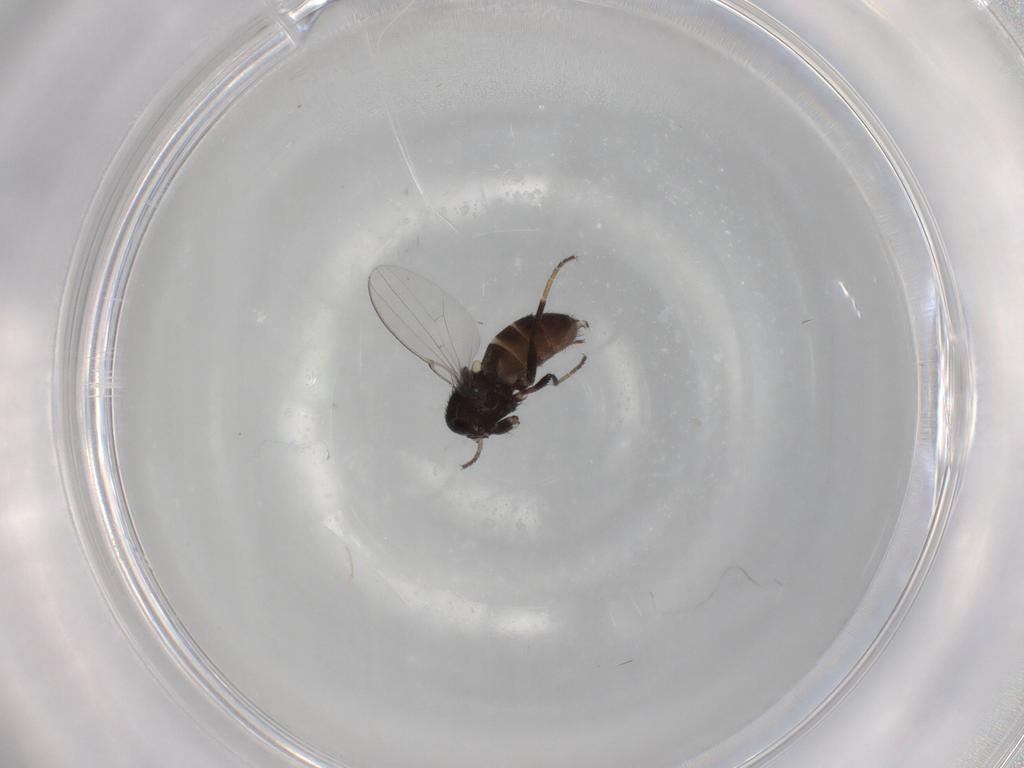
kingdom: Animalia
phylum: Arthropoda
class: Insecta
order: Diptera
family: Milichiidae
